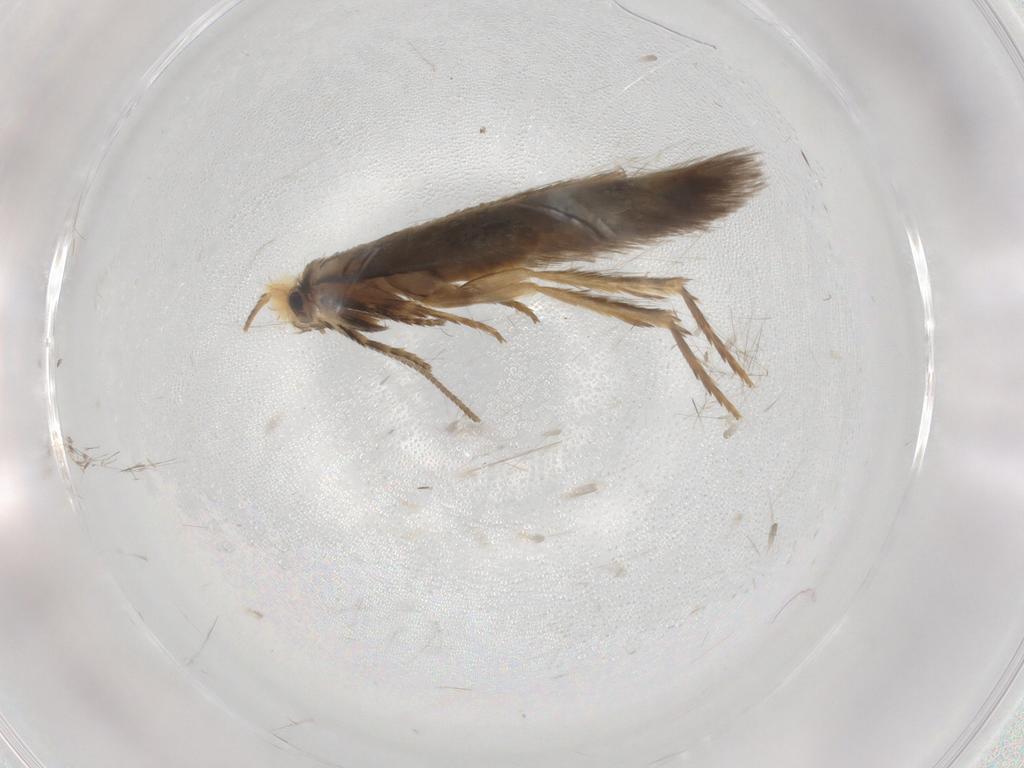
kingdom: Animalia
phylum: Arthropoda
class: Insecta
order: Lepidoptera
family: Nepticulidae
